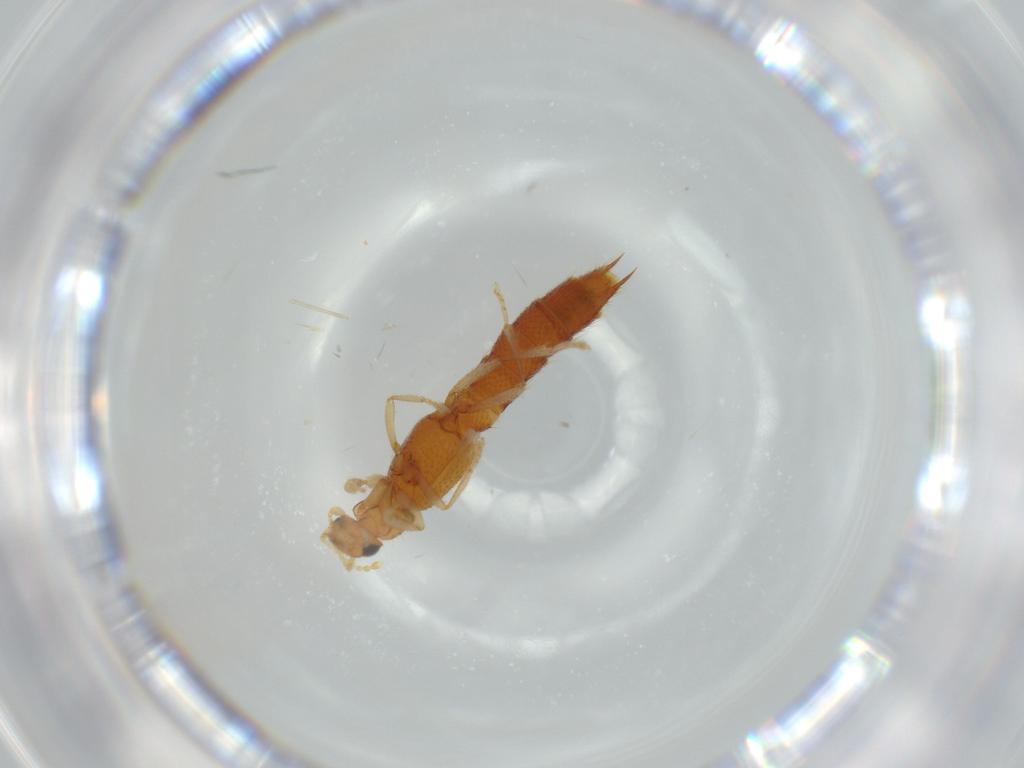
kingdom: Animalia
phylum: Arthropoda
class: Insecta
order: Coleoptera
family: Staphylinidae
